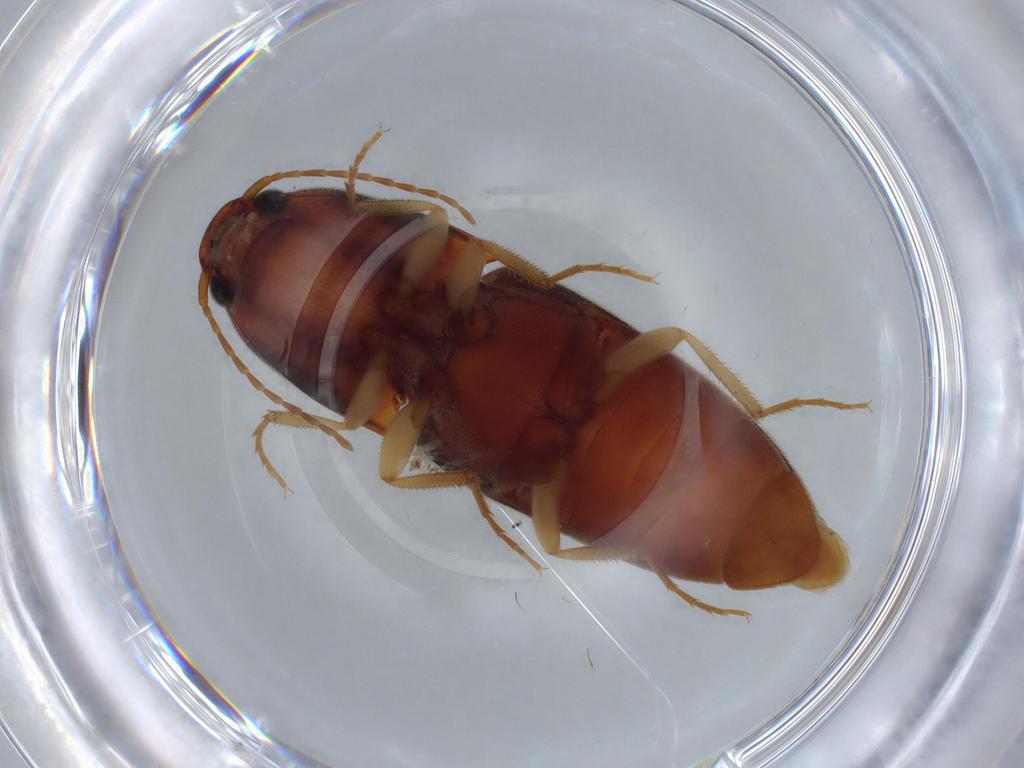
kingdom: Animalia
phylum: Arthropoda
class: Insecta
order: Coleoptera
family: Elateridae
